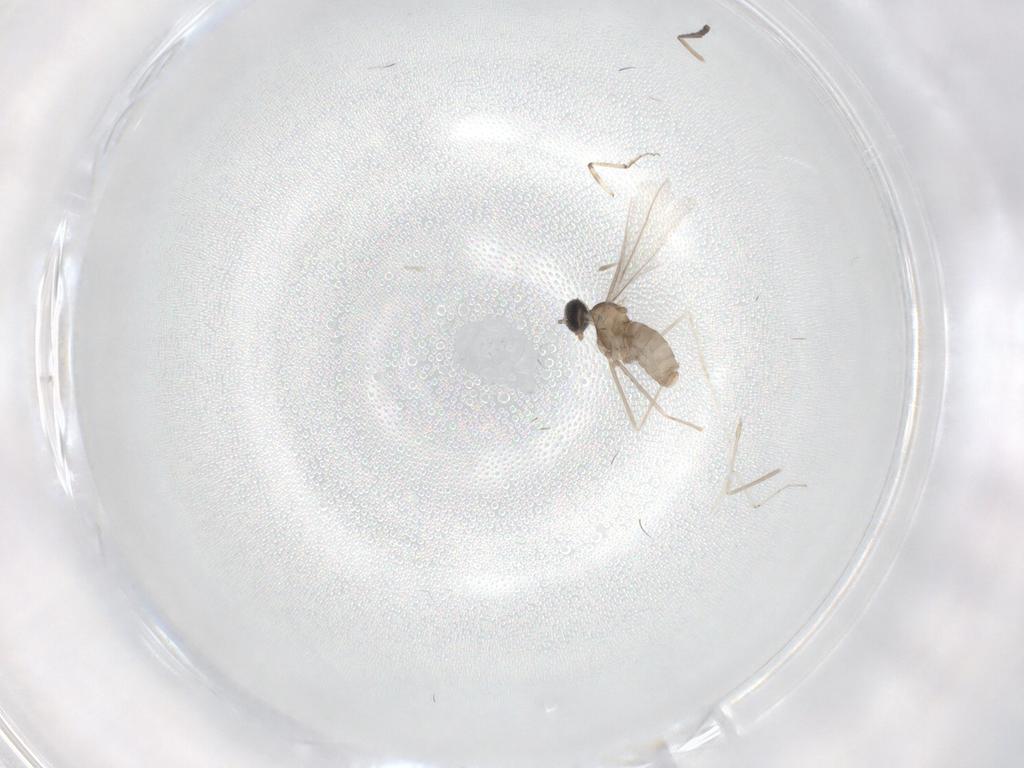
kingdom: Animalia
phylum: Arthropoda
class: Insecta
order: Diptera
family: Cecidomyiidae
